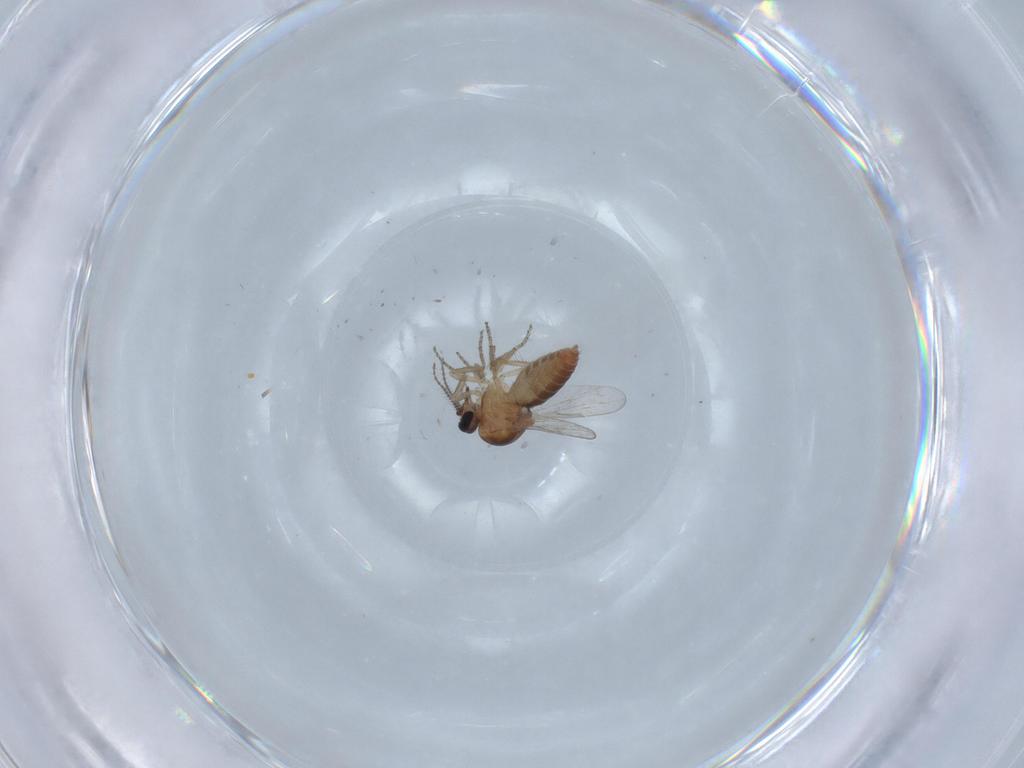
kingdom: Animalia
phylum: Arthropoda
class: Insecta
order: Diptera
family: Ceratopogonidae
